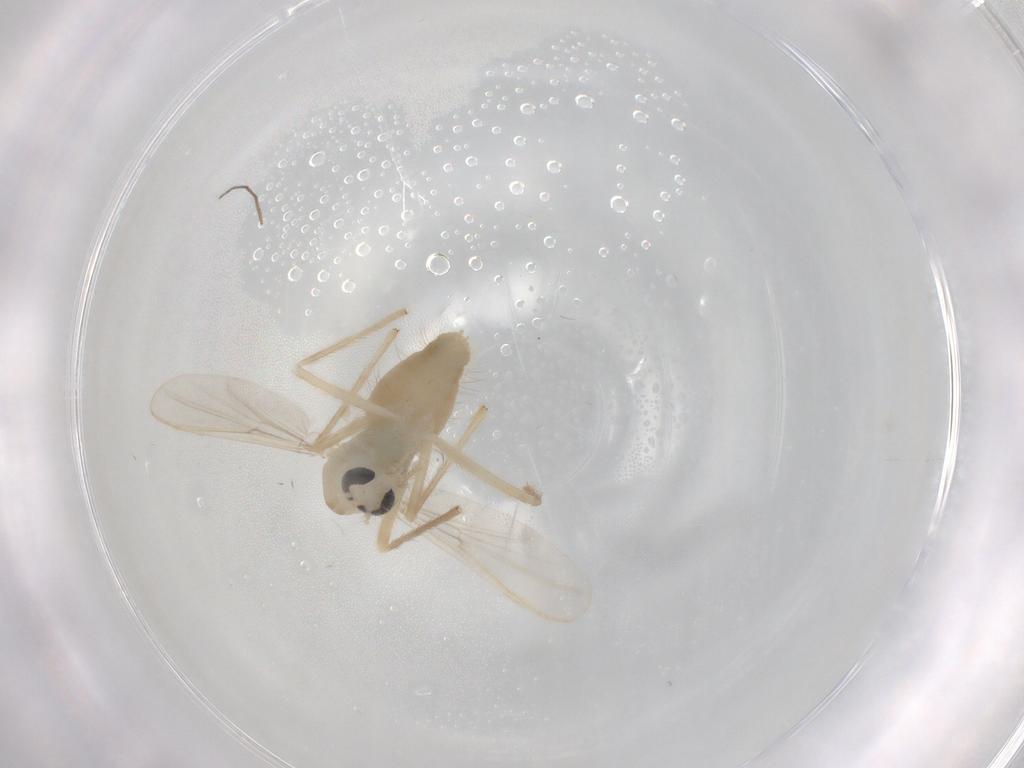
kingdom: Animalia
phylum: Arthropoda
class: Insecta
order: Diptera
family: Chironomidae
